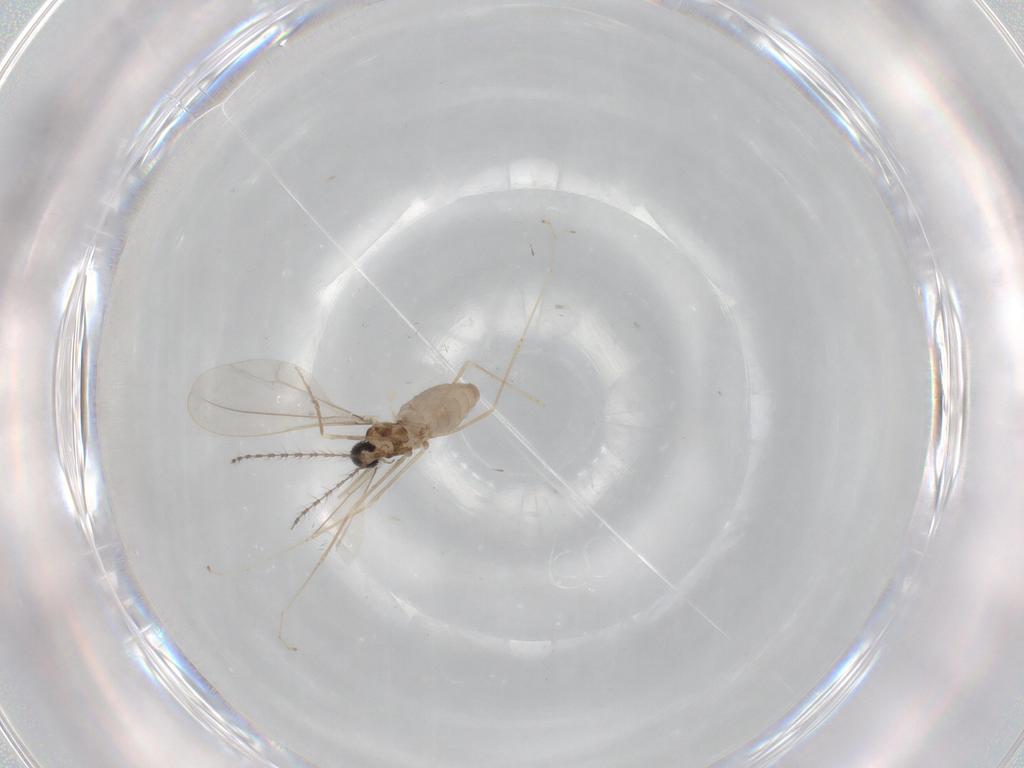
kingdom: Animalia
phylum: Arthropoda
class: Insecta
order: Diptera
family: Cecidomyiidae
